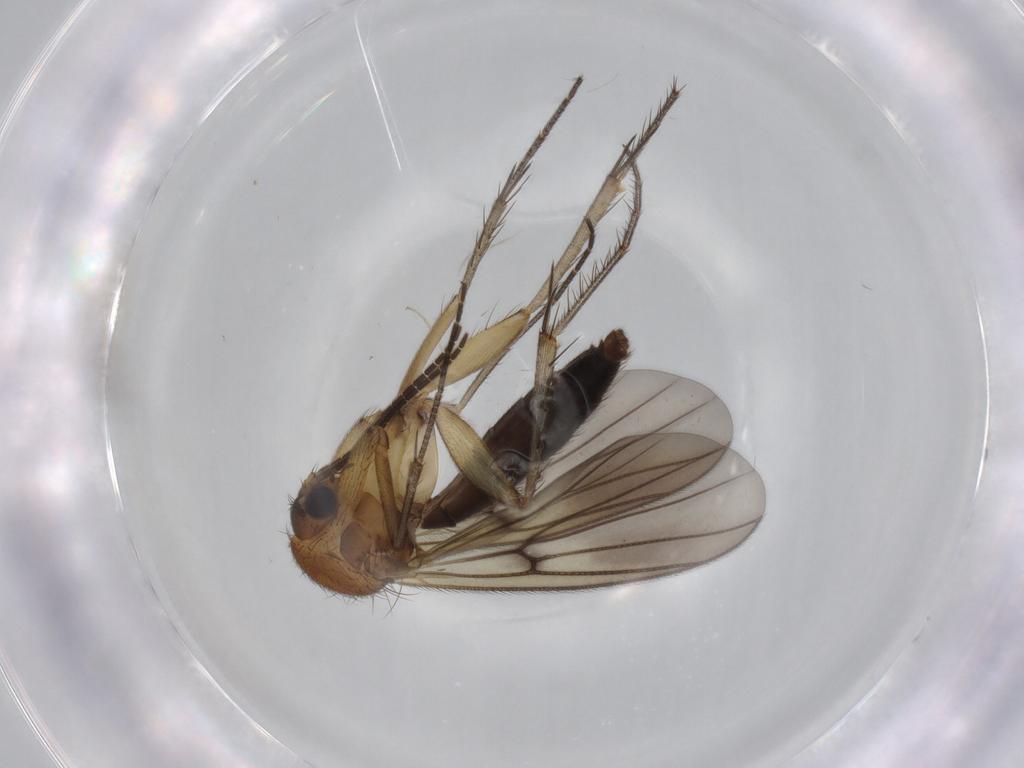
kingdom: Animalia
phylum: Arthropoda
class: Insecta
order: Diptera
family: Mycetophilidae
